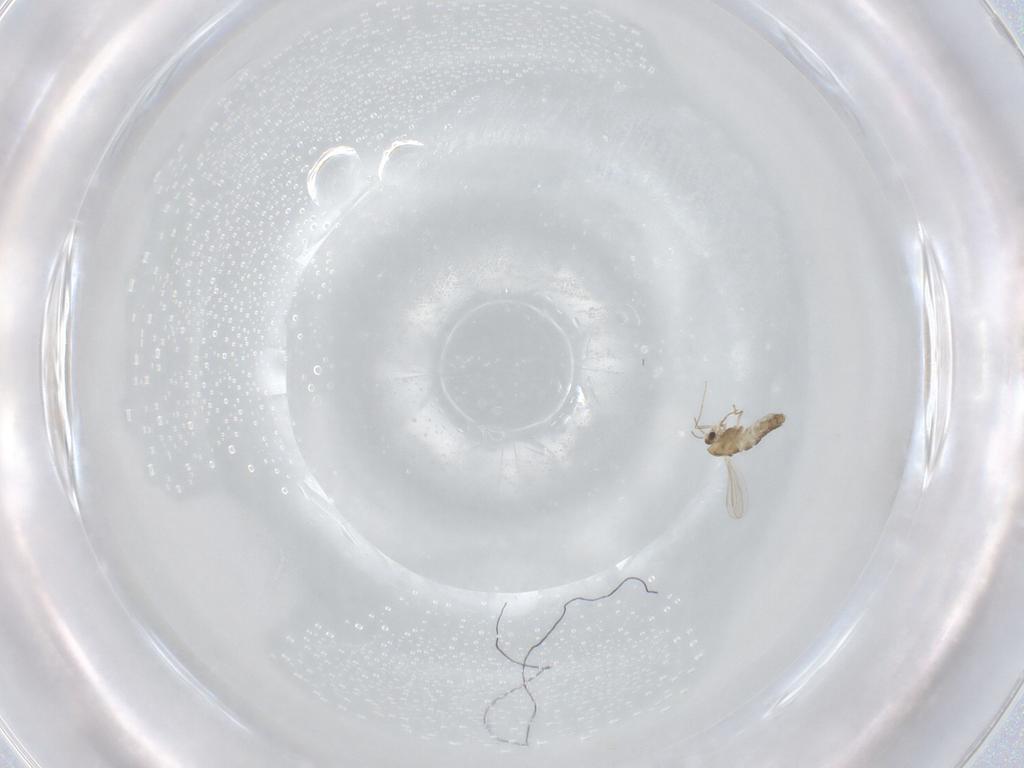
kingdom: Animalia
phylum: Arthropoda
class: Insecta
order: Diptera
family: Chironomidae
